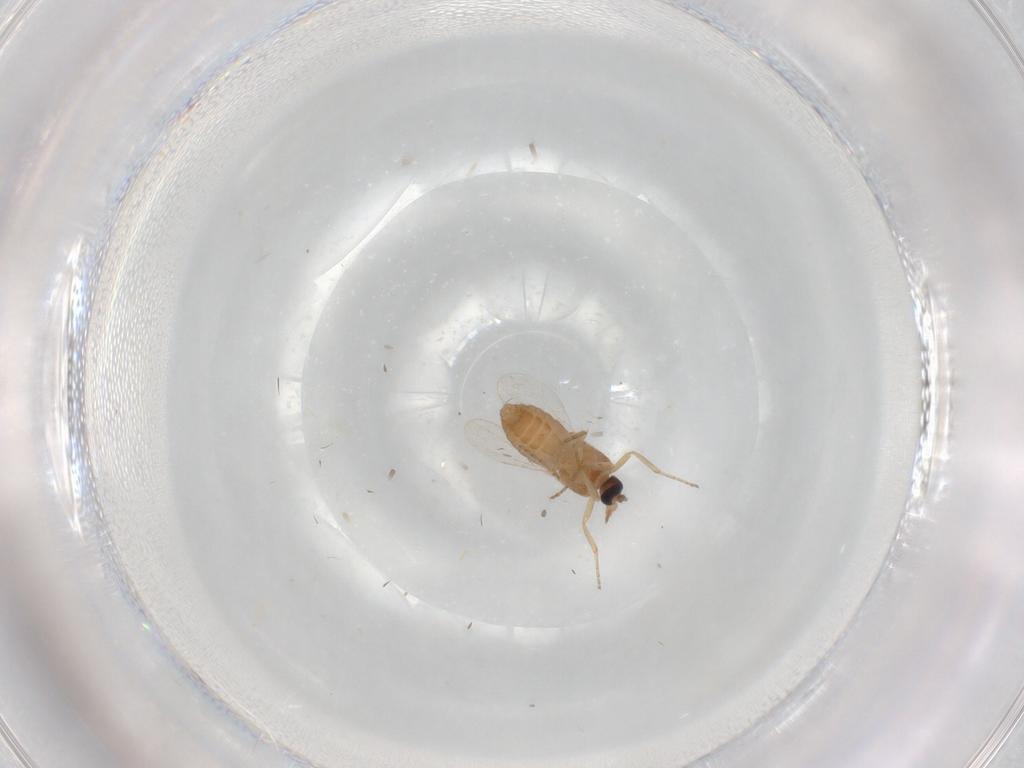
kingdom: Animalia
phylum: Arthropoda
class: Insecta
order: Diptera
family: Ceratopogonidae
